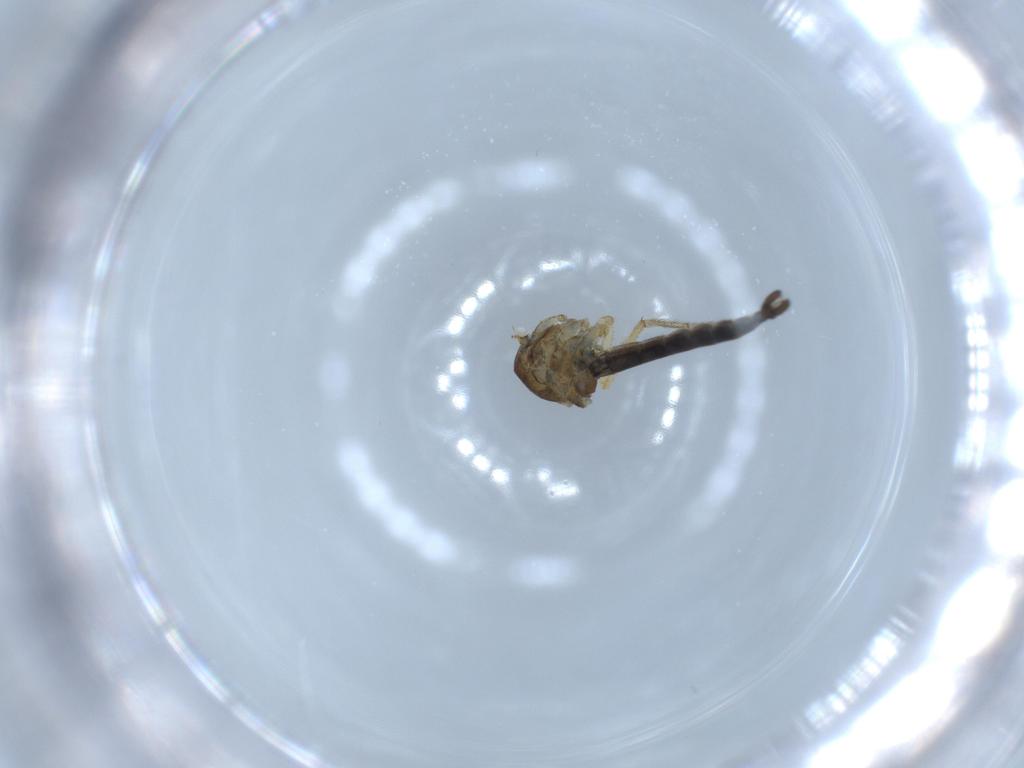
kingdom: Animalia
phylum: Arthropoda
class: Insecta
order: Diptera
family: Ceratopogonidae
